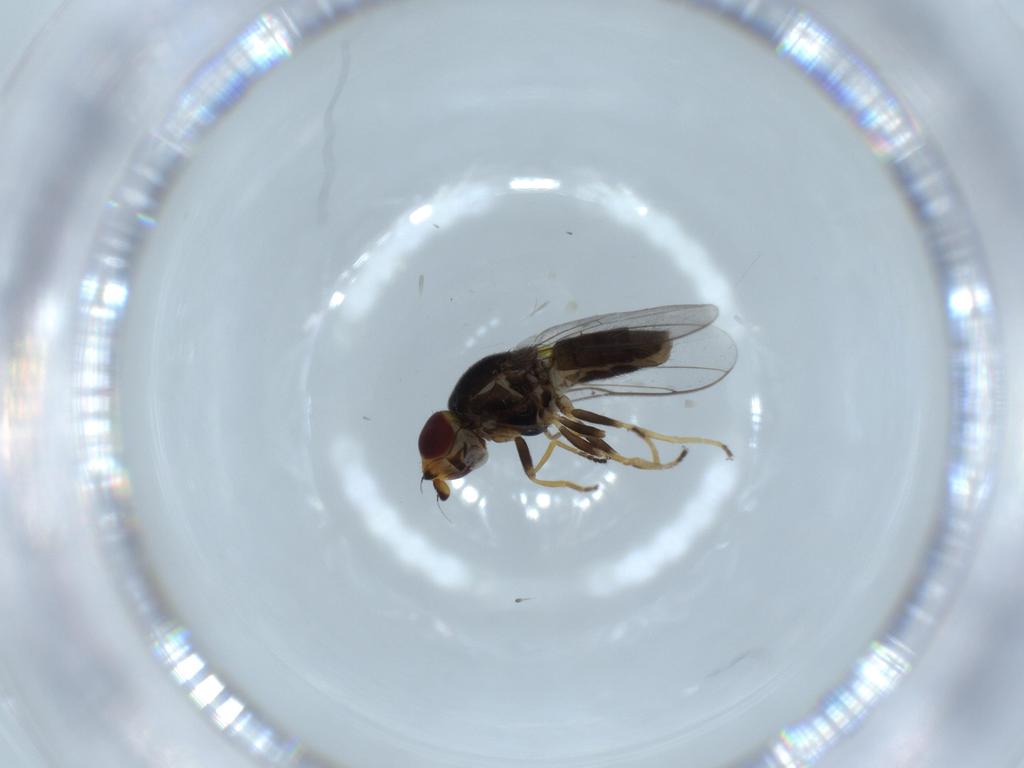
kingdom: Animalia
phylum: Arthropoda
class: Insecta
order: Diptera
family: Chloropidae
